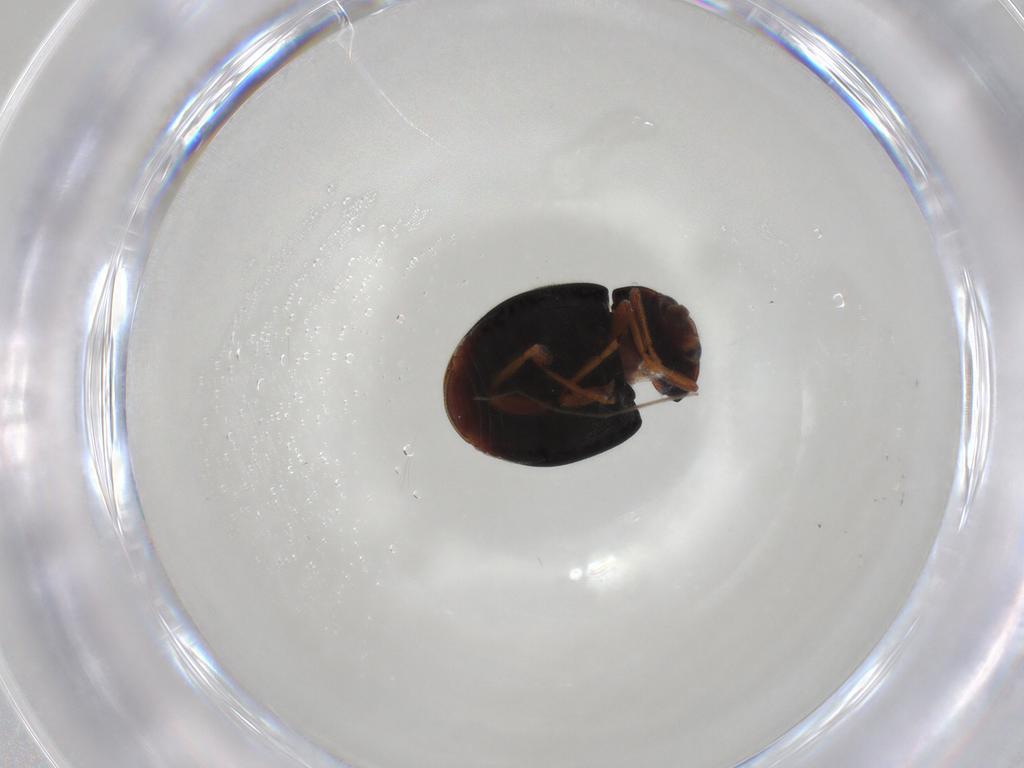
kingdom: Animalia
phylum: Arthropoda
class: Insecta
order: Coleoptera
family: Coccinellidae
